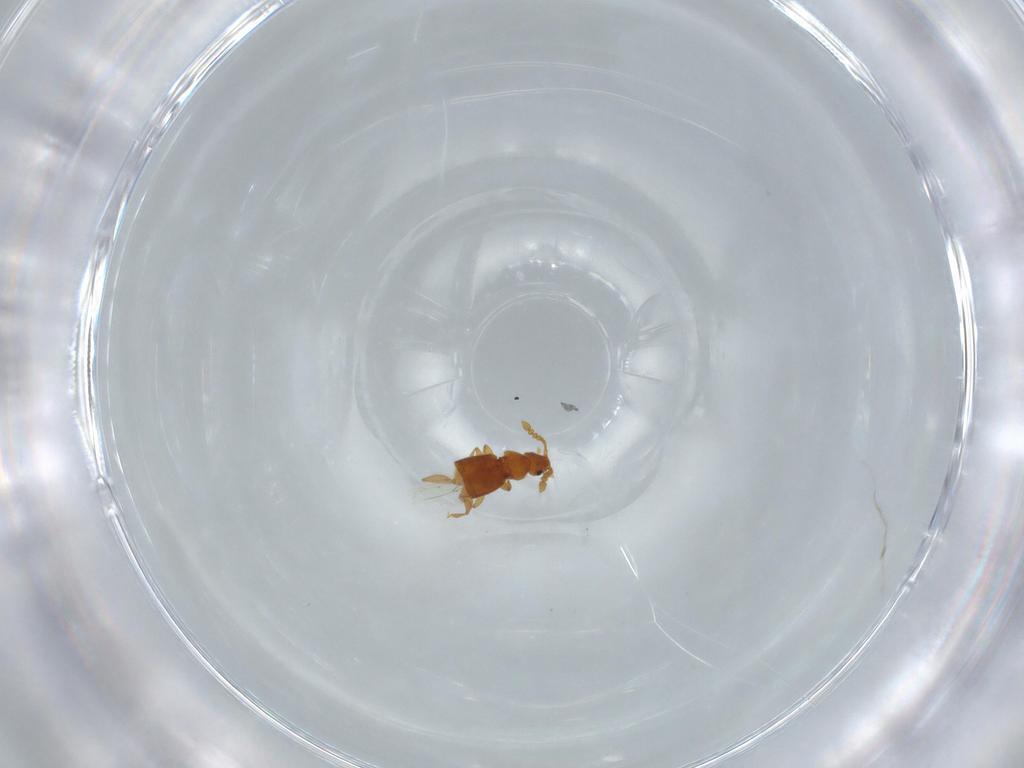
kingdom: Animalia
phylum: Arthropoda
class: Insecta
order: Coleoptera
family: Staphylinidae
